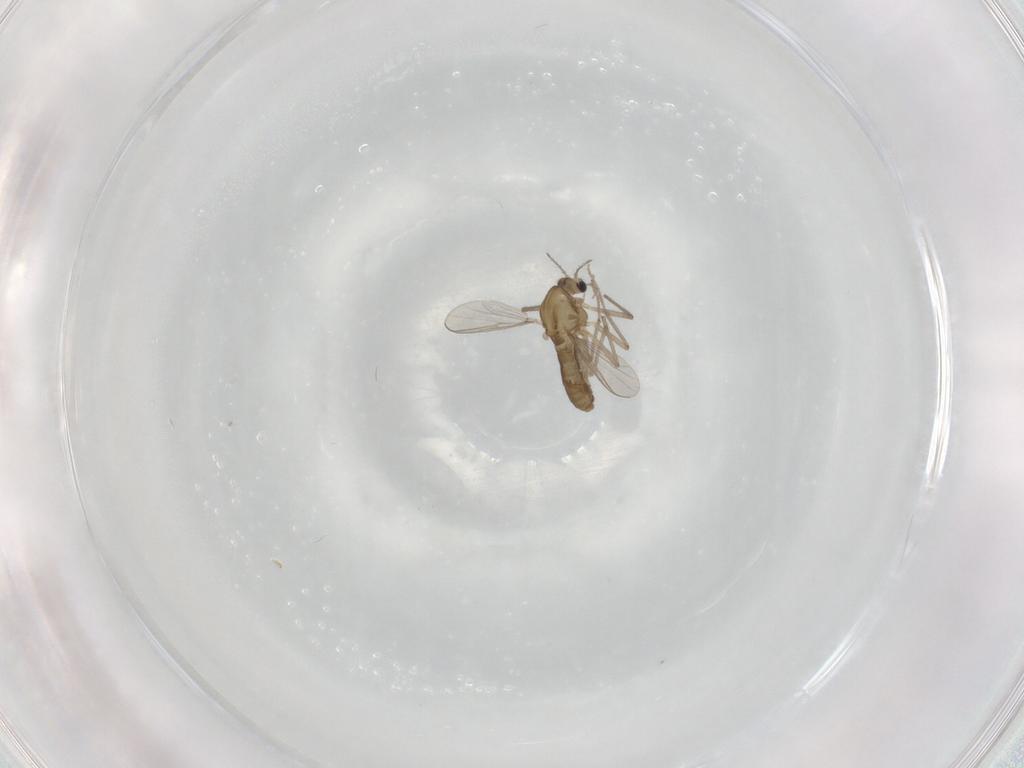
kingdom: Animalia
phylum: Arthropoda
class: Insecta
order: Diptera
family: Chironomidae
